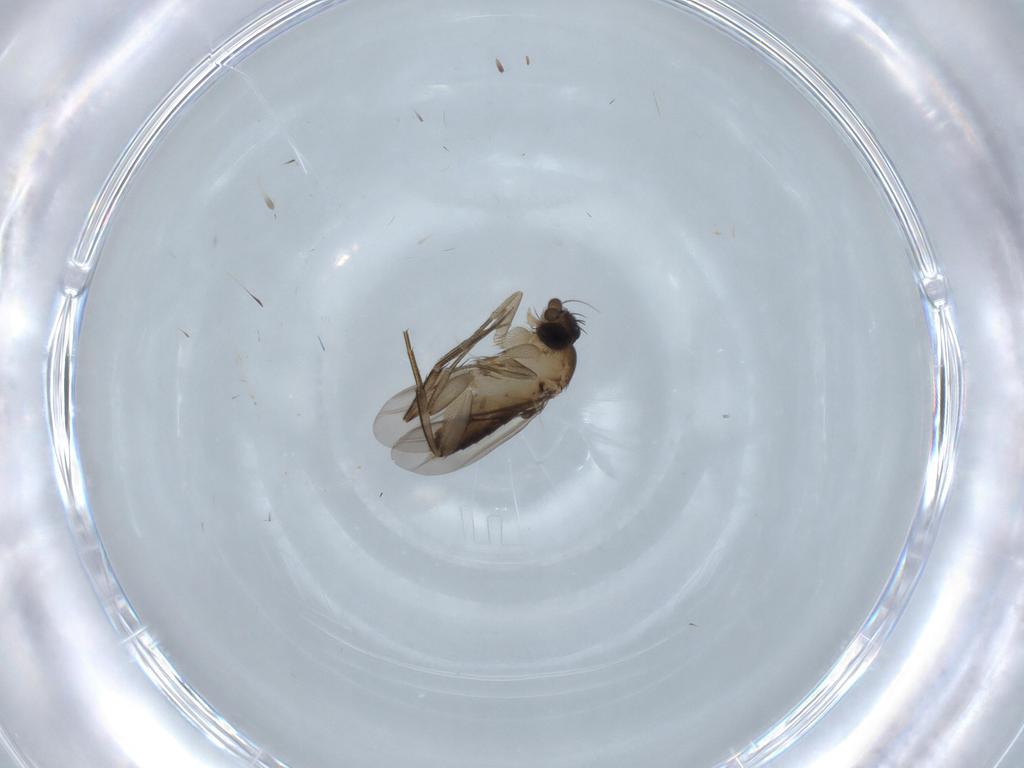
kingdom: Animalia
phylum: Arthropoda
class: Insecta
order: Diptera
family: Phoridae
